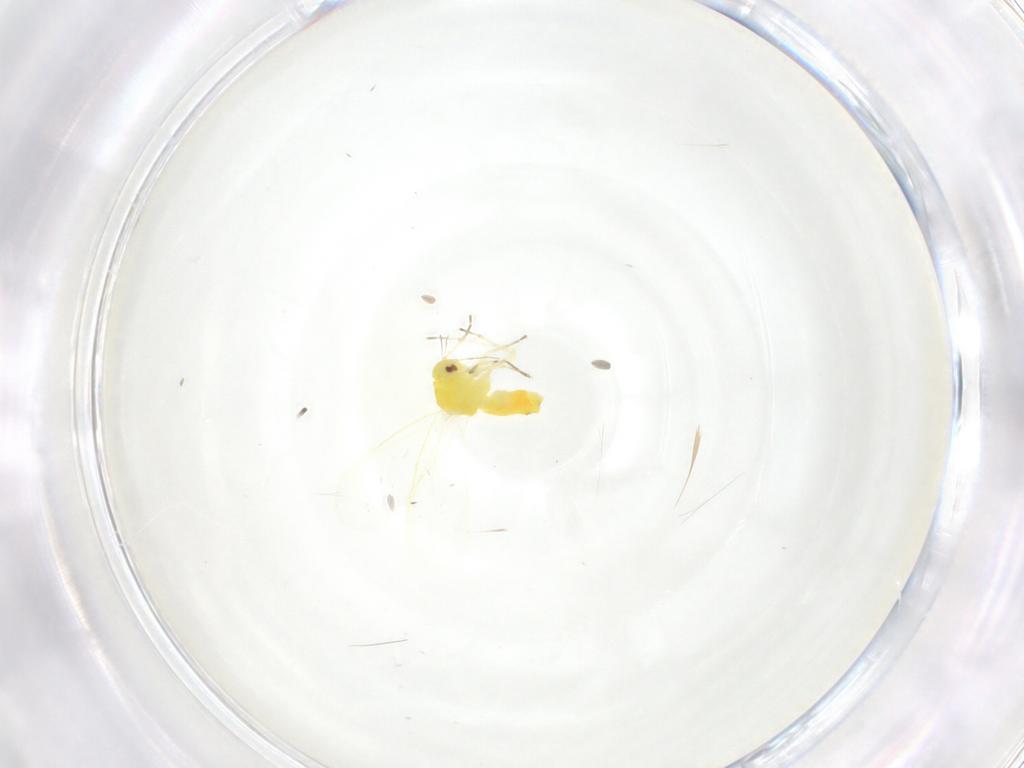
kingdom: Animalia
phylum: Arthropoda
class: Insecta
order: Hemiptera
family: Aleyrodidae
